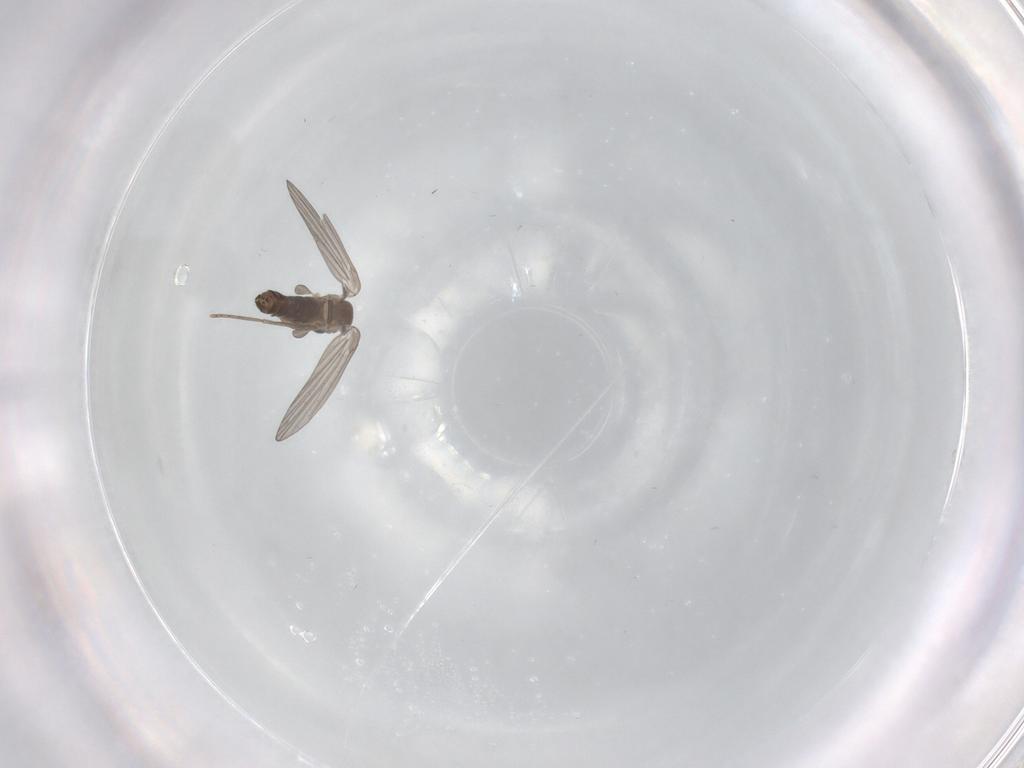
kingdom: Animalia
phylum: Arthropoda
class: Insecta
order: Diptera
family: Psychodidae
